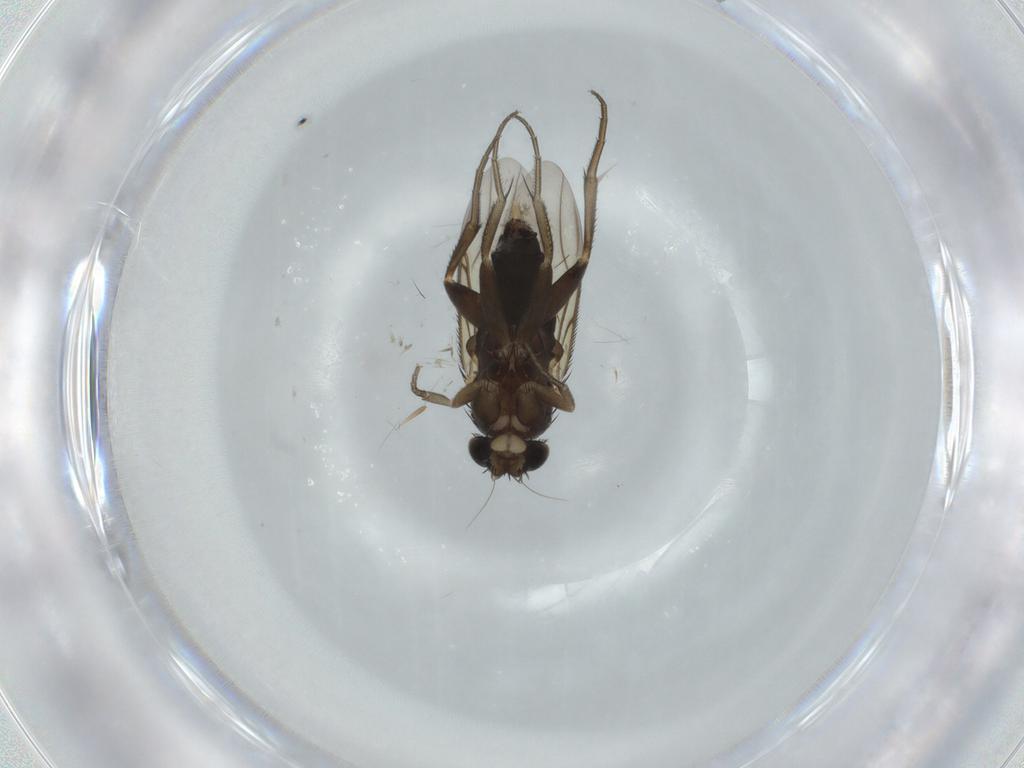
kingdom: Animalia
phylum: Arthropoda
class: Insecta
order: Diptera
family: Phoridae
